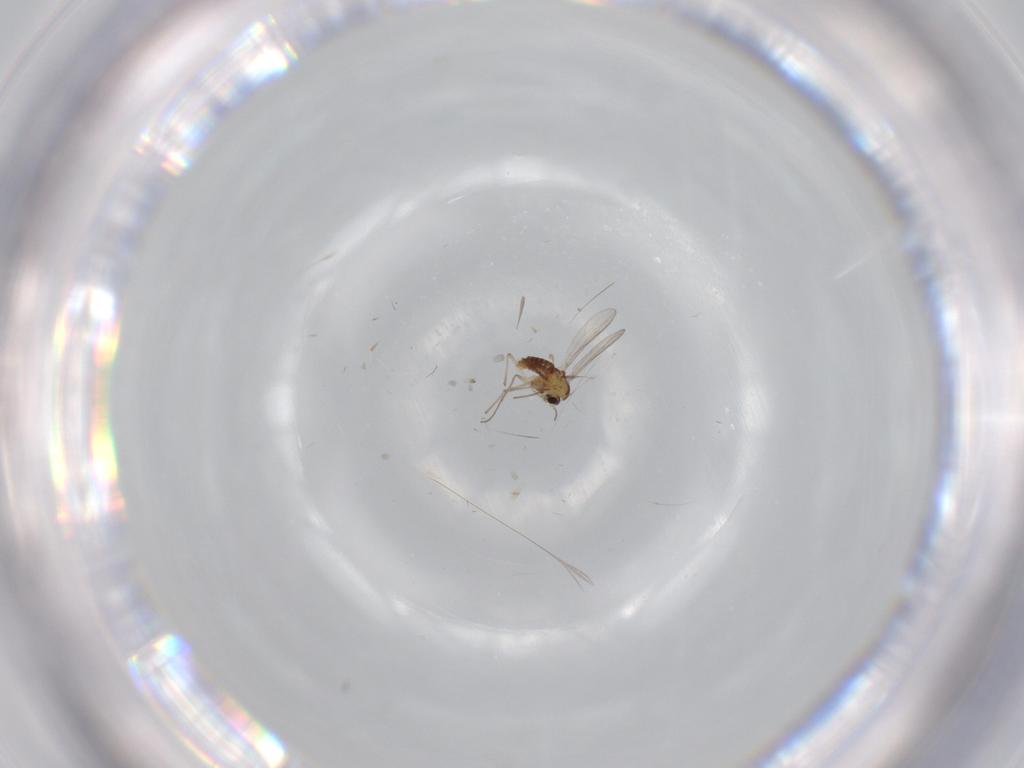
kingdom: Animalia
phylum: Arthropoda
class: Insecta
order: Diptera
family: Chironomidae
